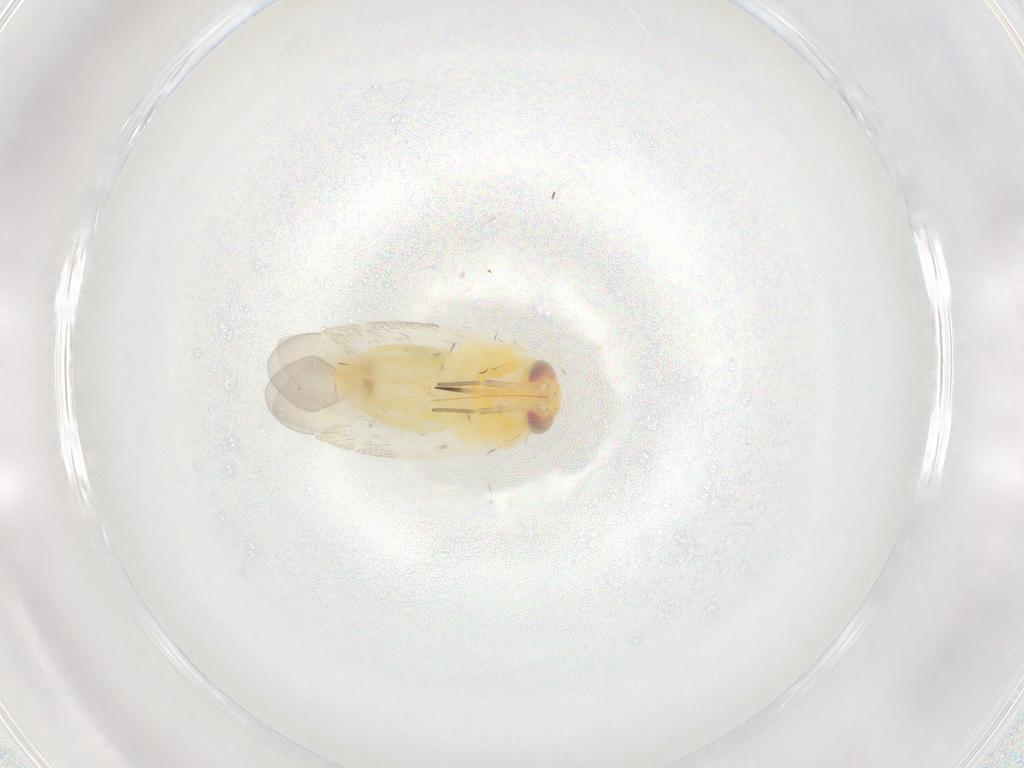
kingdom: Animalia
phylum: Arthropoda
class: Insecta
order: Hemiptera
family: Miridae
